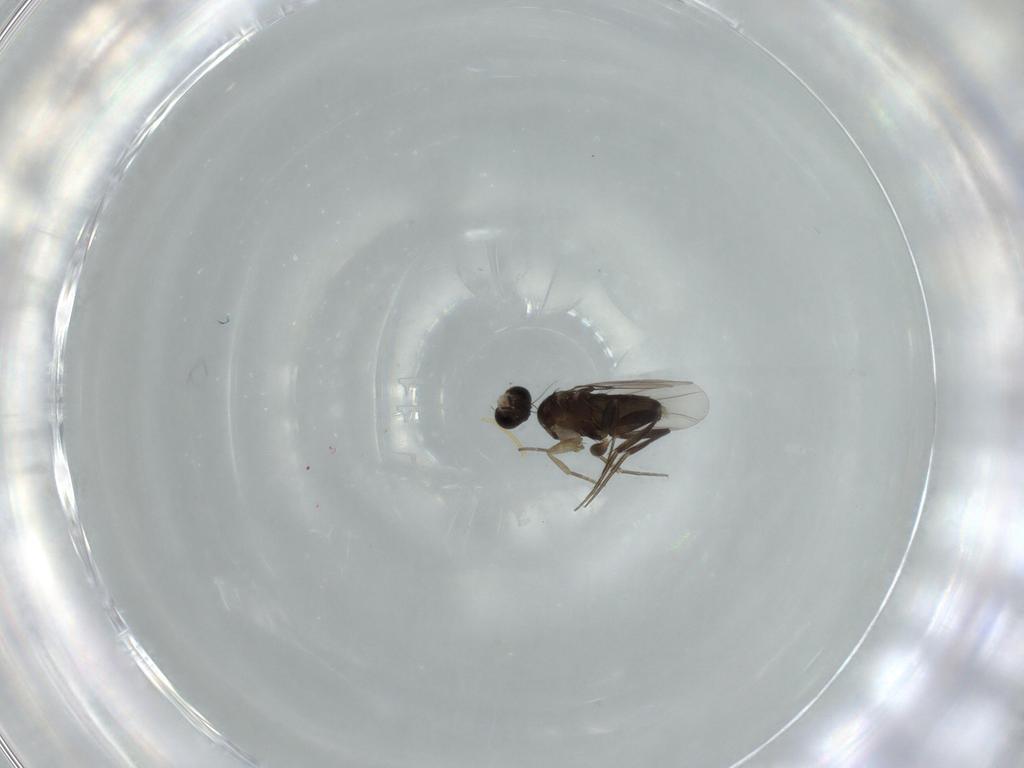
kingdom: Animalia
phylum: Arthropoda
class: Insecta
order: Diptera
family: Phoridae
